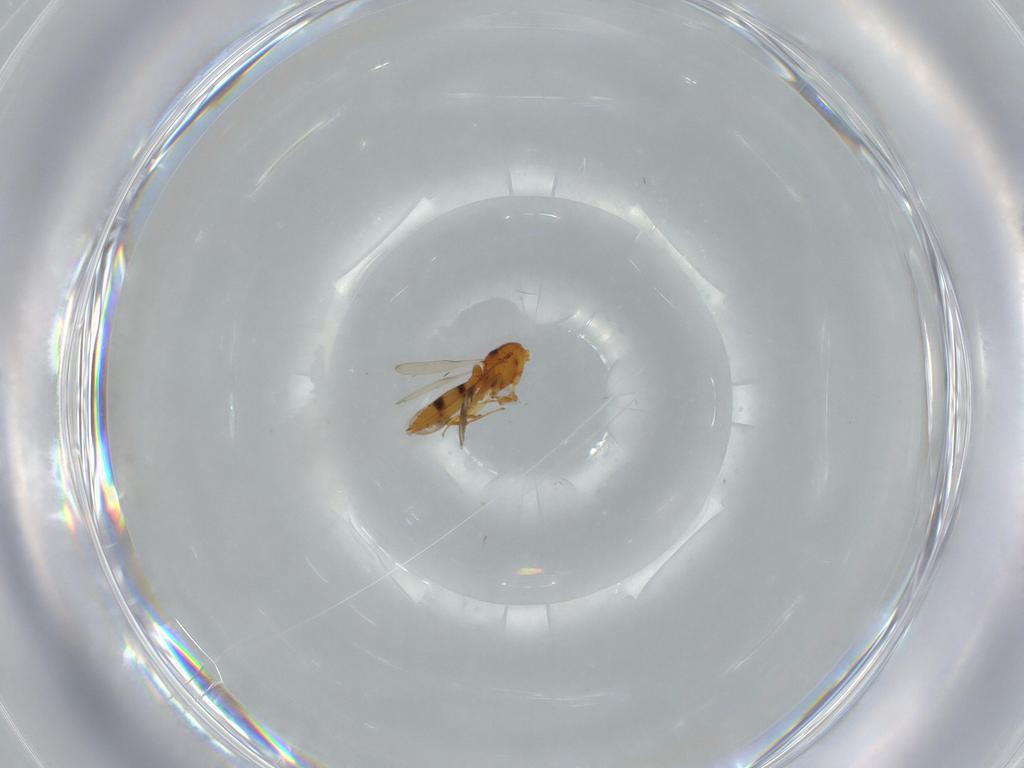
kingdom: Animalia
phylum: Arthropoda
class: Insecta
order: Hymenoptera
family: Scelionidae
